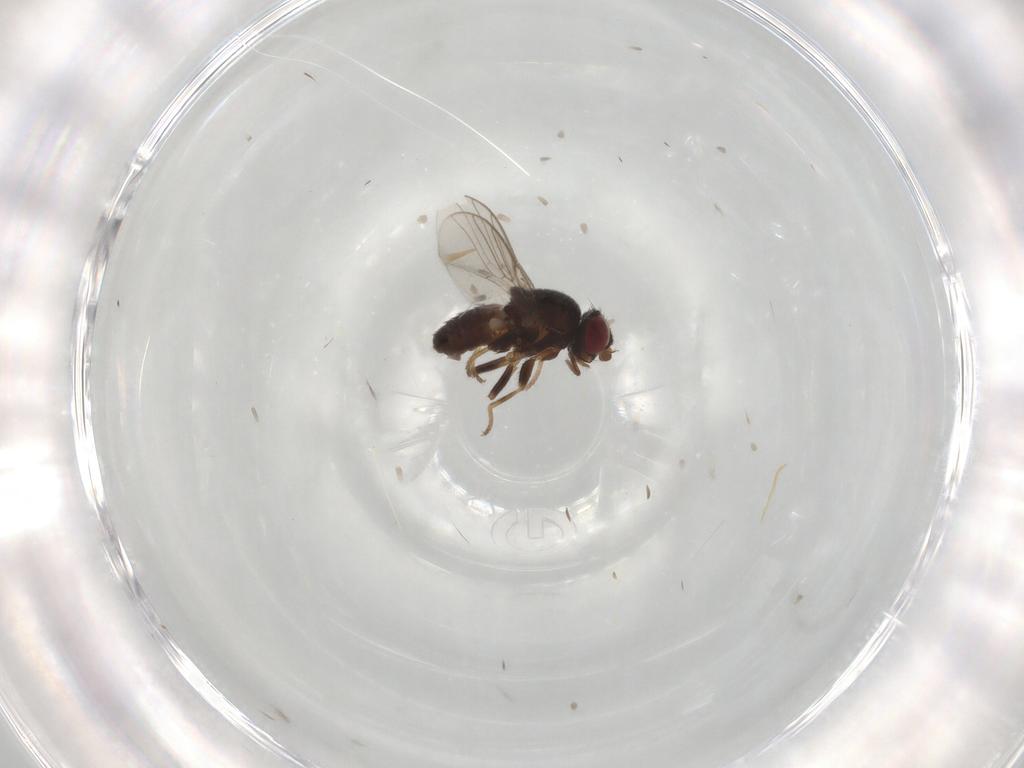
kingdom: Animalia
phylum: Arthropoda
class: Insecta
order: Diptera
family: Chloropidae
